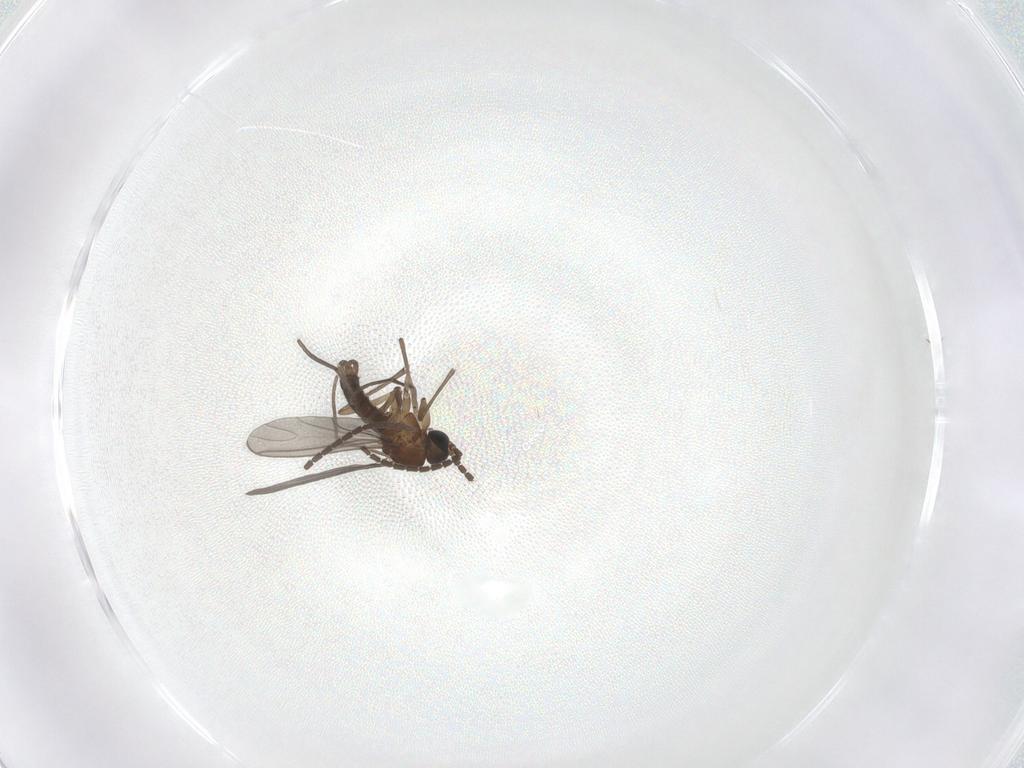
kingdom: Animalia
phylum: Arthropoda
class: Insecta
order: Diptera
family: Sciaridae
